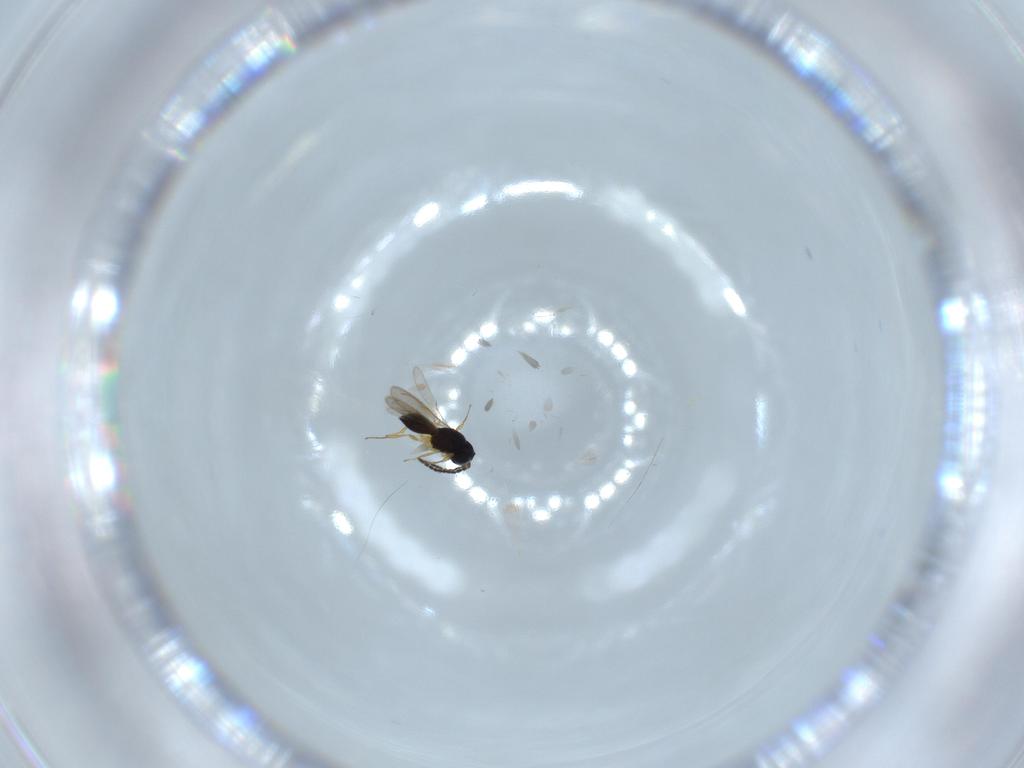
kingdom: Animalia
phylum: Arthropoda
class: Insecta
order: Hymenoptera
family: Scelionidae
